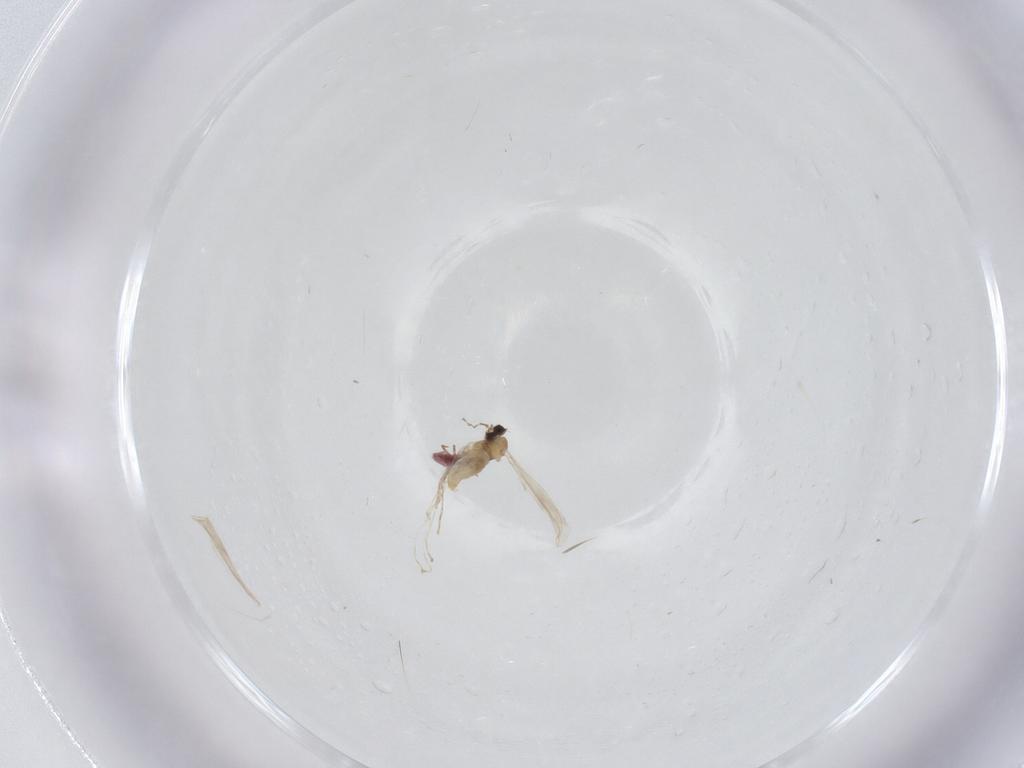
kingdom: Animalia
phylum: Arthropoda
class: Insecta
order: Diptera
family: Cecidomyiidae
